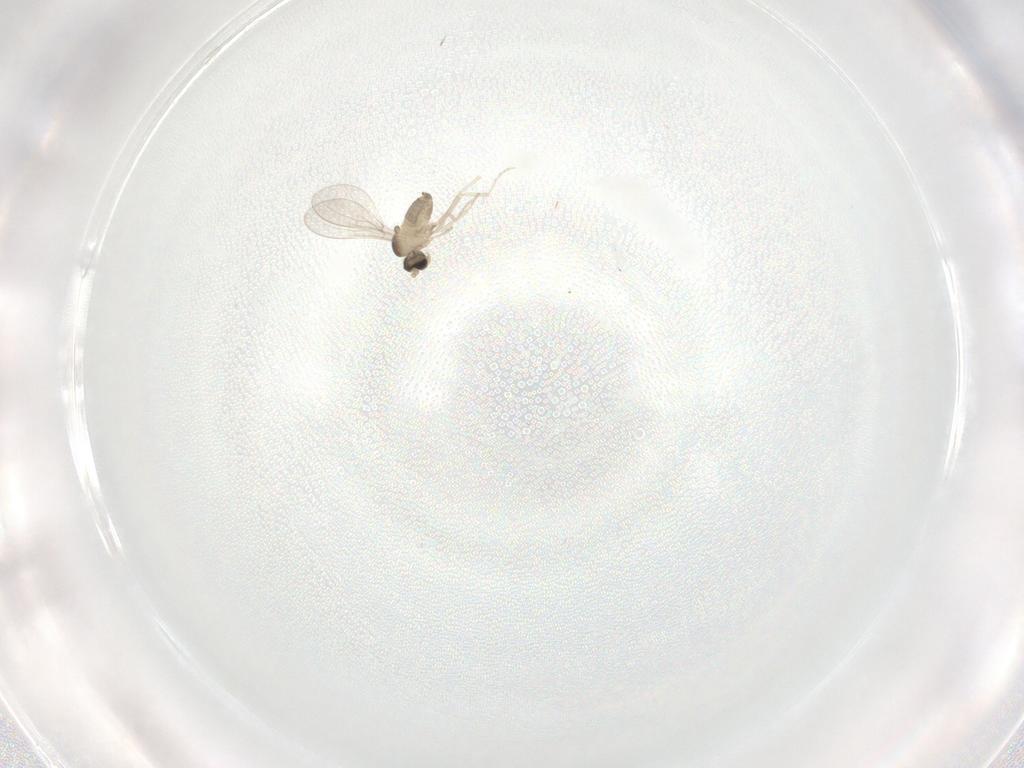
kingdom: Animalia
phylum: Arthropoda
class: Insecta
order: Diptera
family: Cecidomyiidae
